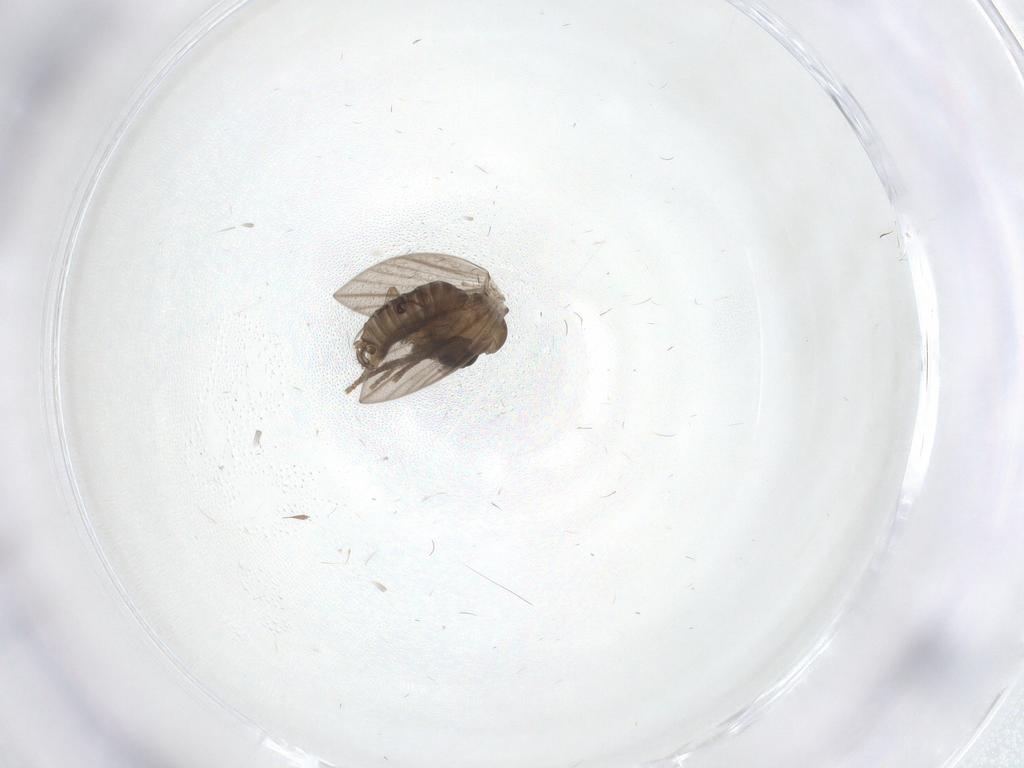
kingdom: Animalia
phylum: Arthropoda
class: Insecta
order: Diptera
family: Psychodidae
